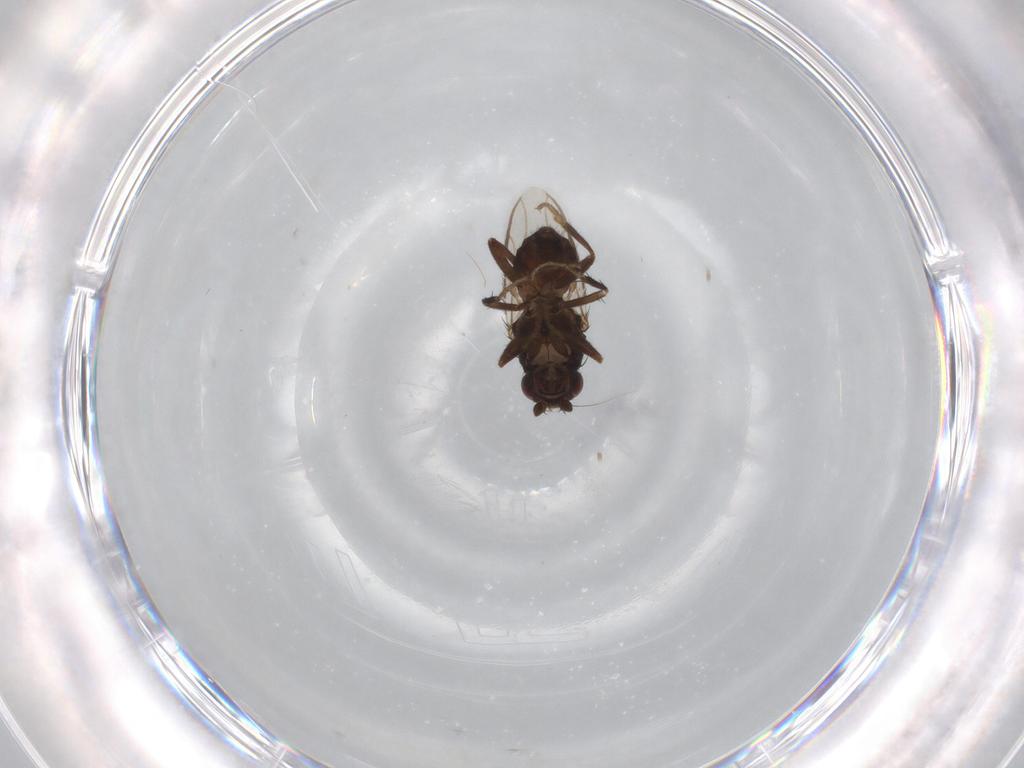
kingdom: Animalia
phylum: Arthropoda
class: Insecta
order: Diptera
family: Sphaeroceridae
